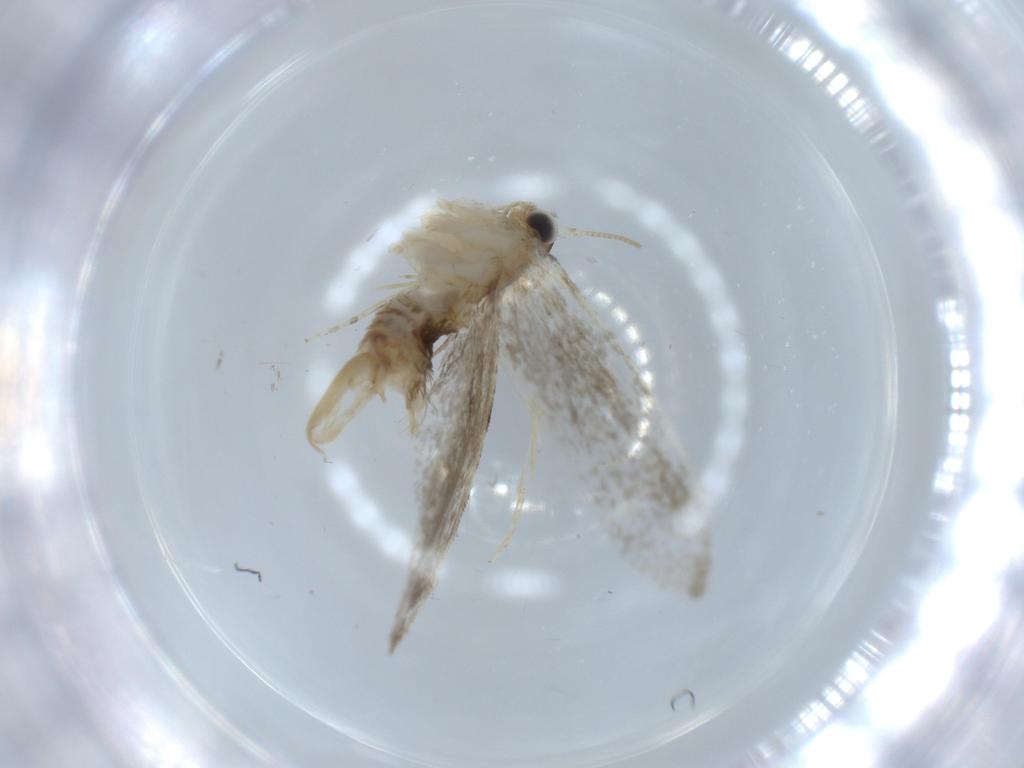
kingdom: Animalia
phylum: Arthropoda
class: Insecta
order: Lepidoptera
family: Tineidae
